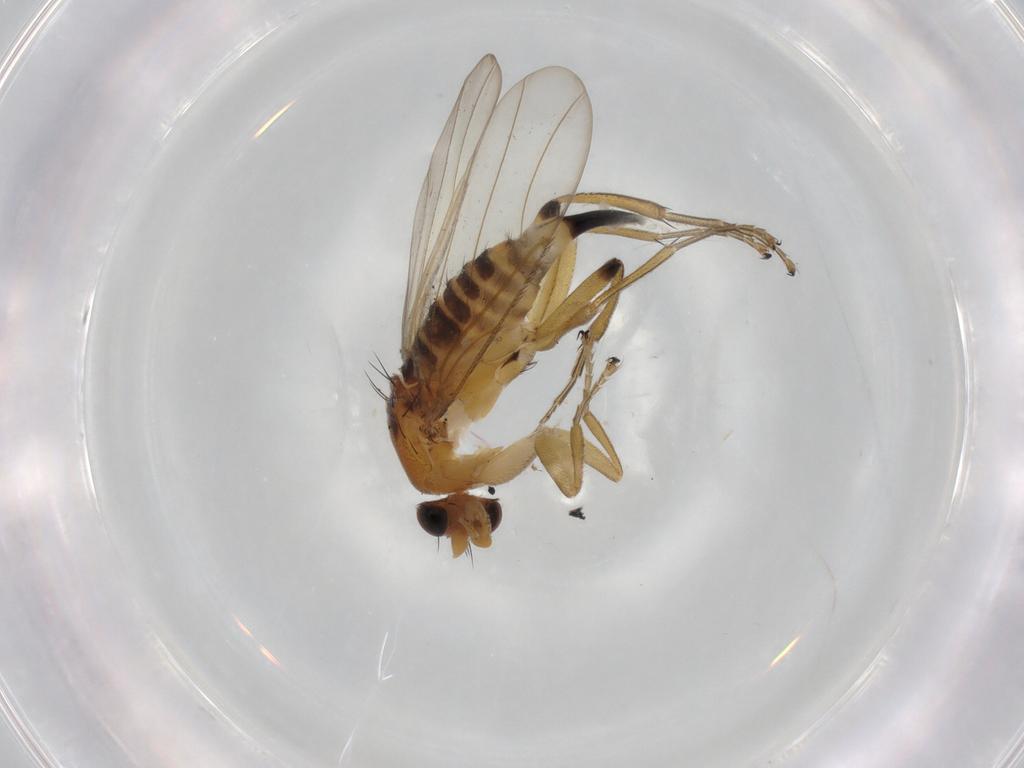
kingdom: Animalia
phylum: Arthropoda
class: Insecta
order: Diptera
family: Phoridae
